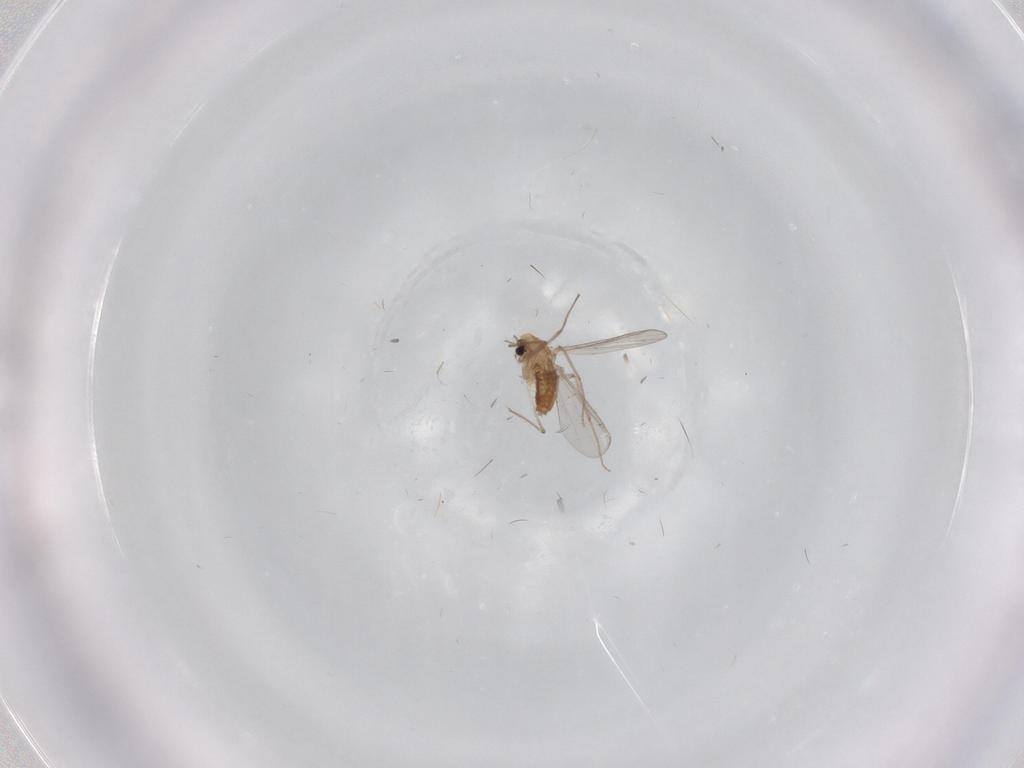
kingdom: Animalia
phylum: Arthropoda
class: Insecta
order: Diptera
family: Chironomidae
